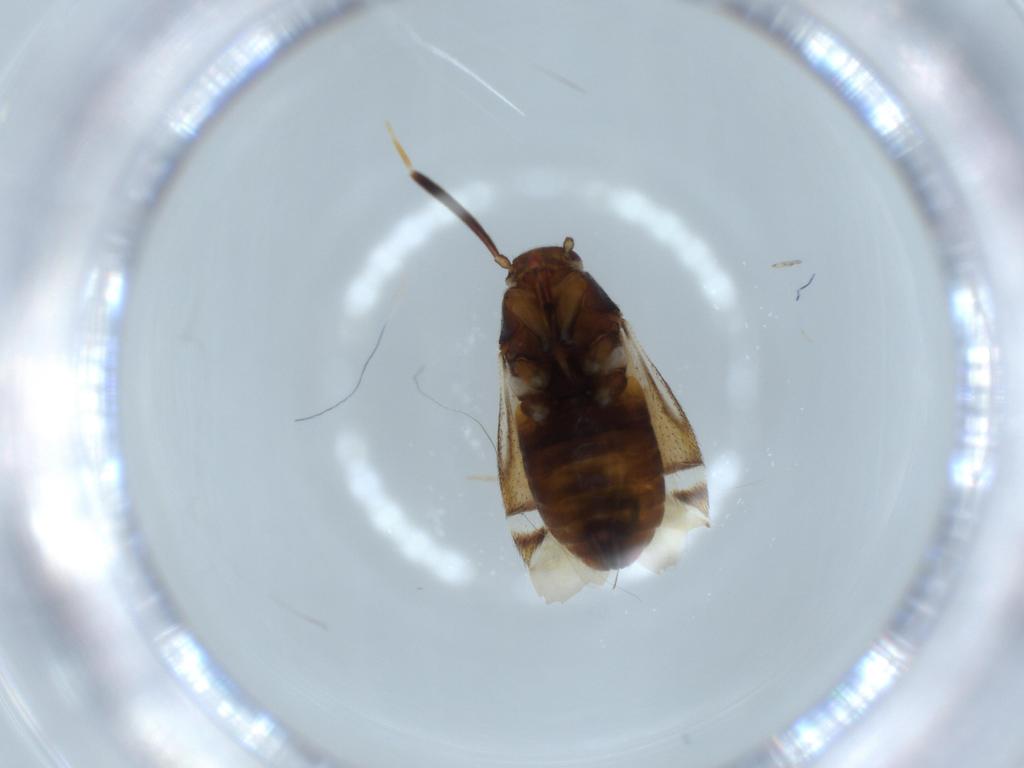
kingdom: Animalia
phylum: Arthropoda
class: Insecta
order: Hemiptera
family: Miridae
